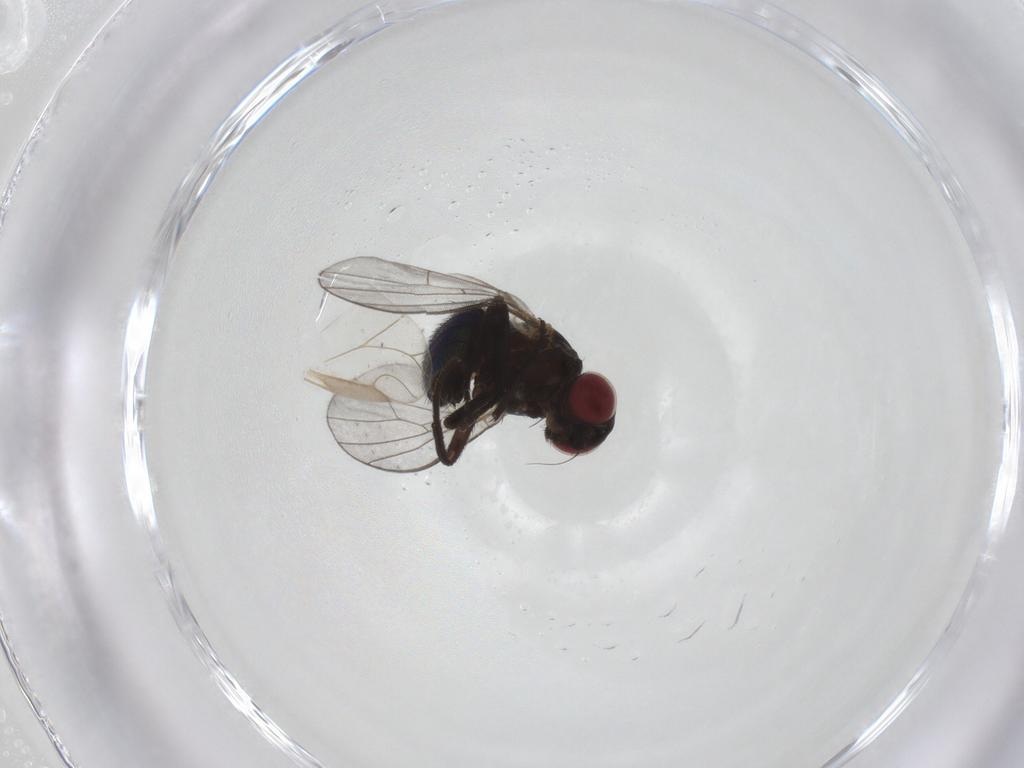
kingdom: Animalia
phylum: Arthropoda
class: Insecta
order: Diptera
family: Agromyzidae
